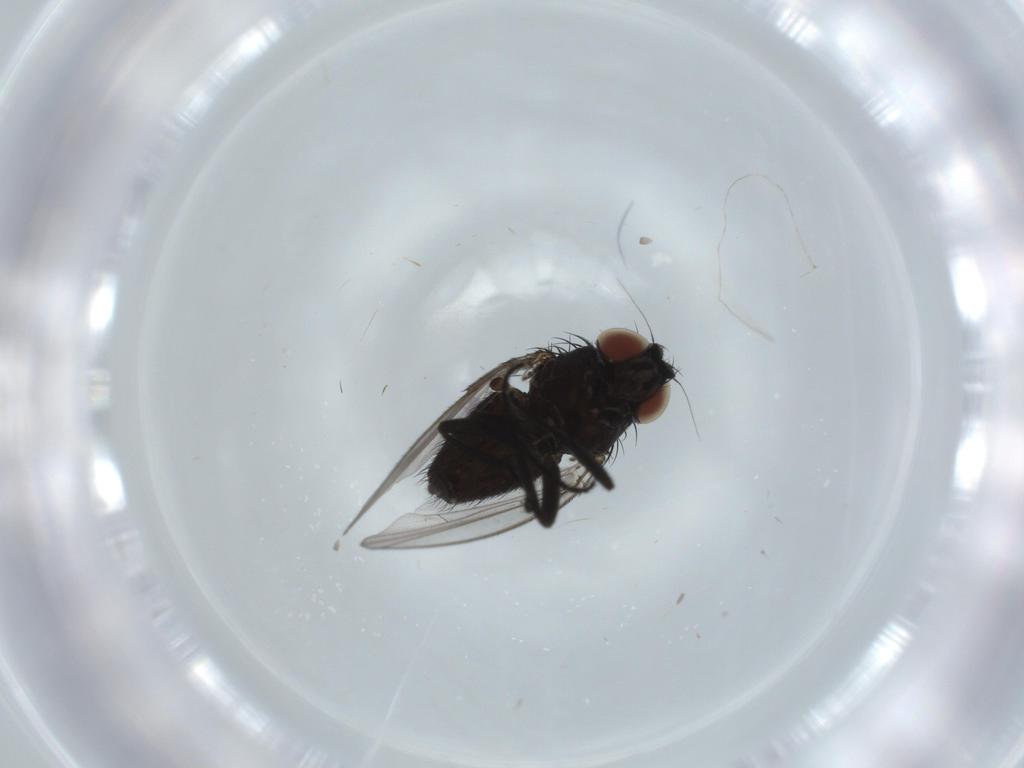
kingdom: Animalia
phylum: Arthropoda
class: Insecta
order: Diptera
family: Milichiidae
